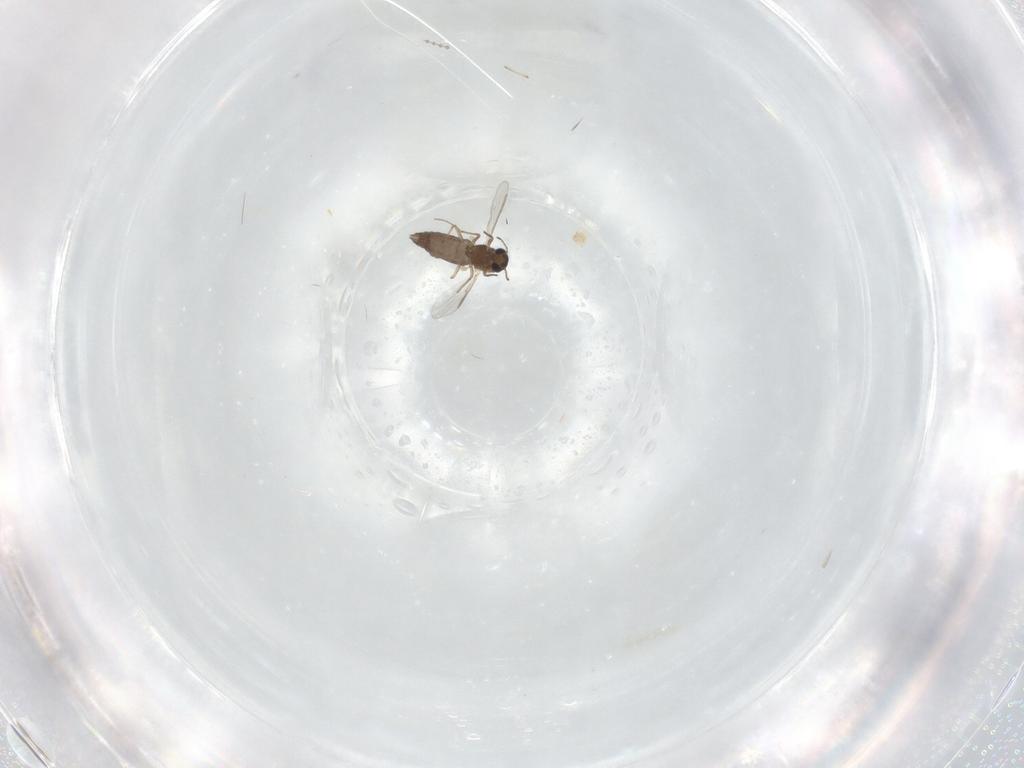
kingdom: Animalia
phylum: Arthropoda
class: Insecta
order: Diptera
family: Chironomidae
